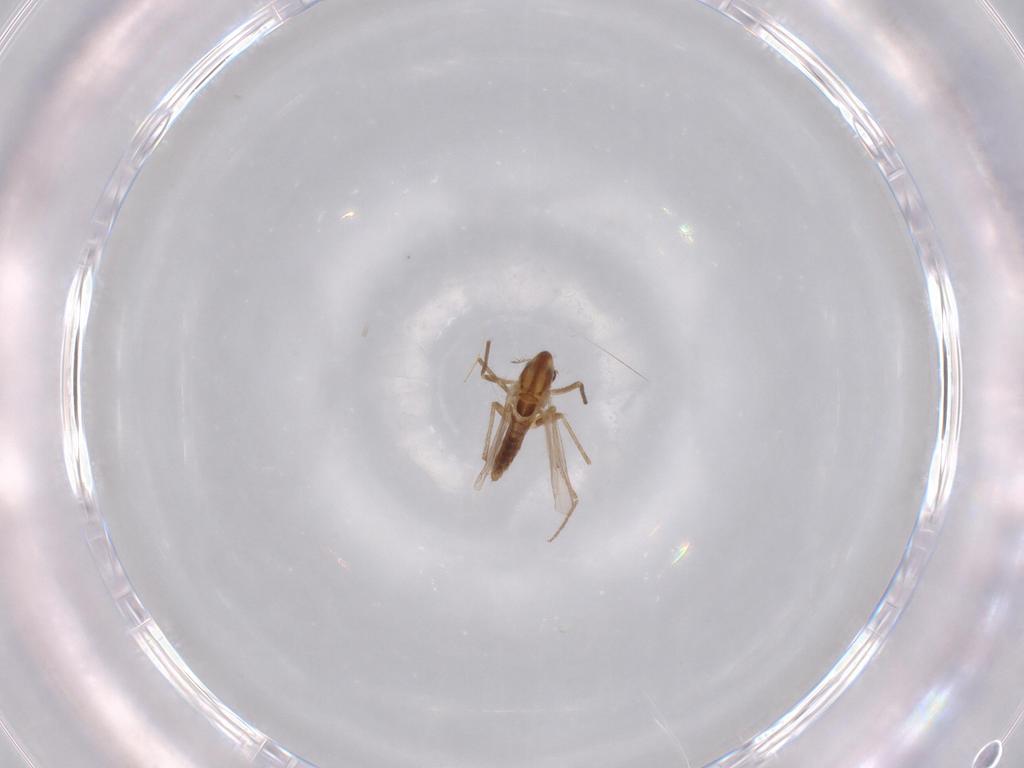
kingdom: Animalia
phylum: Arthropoda
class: Insecta
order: Diptera
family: Chironomidae
